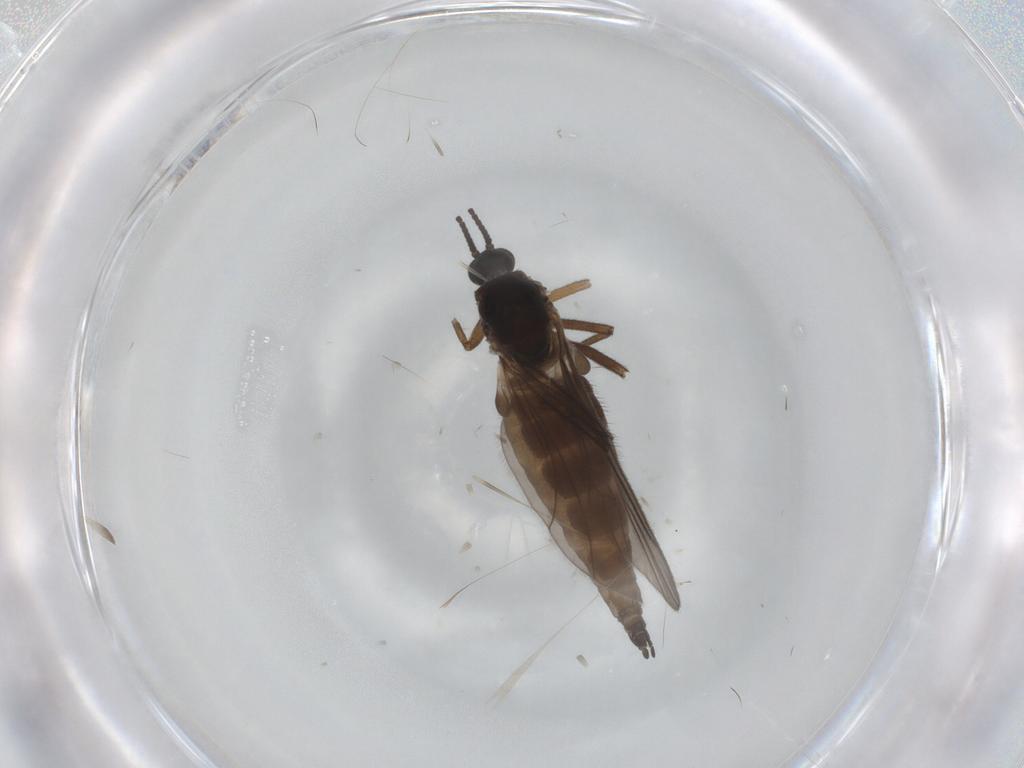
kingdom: Animalia
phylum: Arthropoda
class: Insecta
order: Diptera
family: Sciaridae
